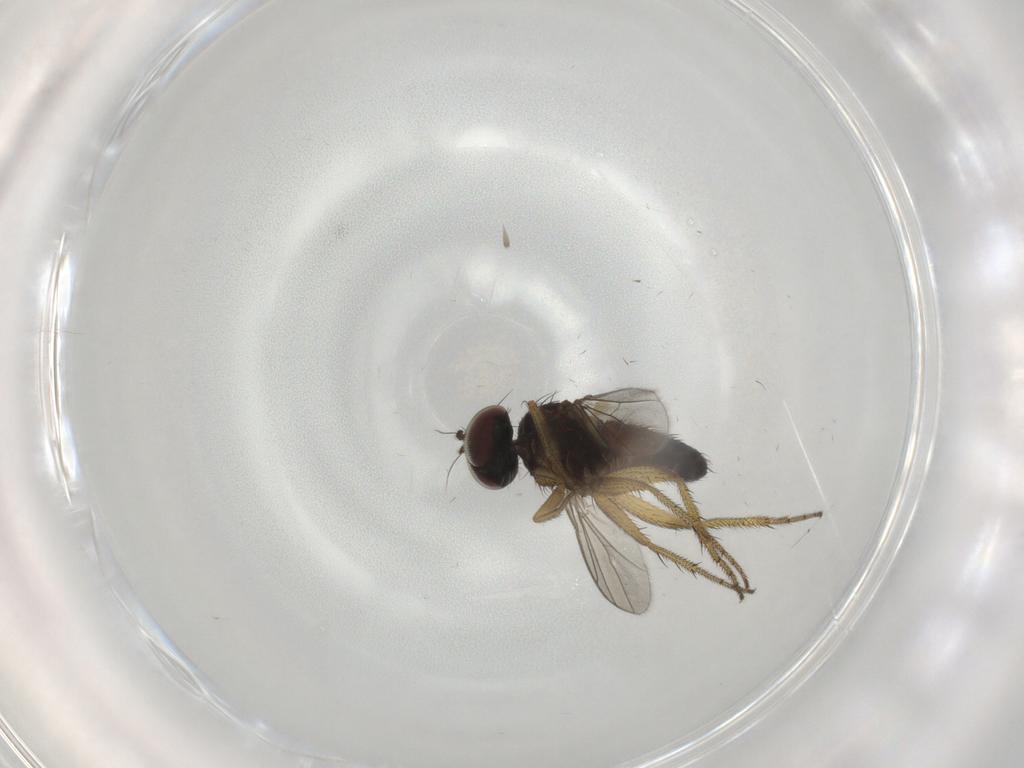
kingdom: Animalia
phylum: Arthropoda
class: Insecta
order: Diptera
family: Dolichopodidae
